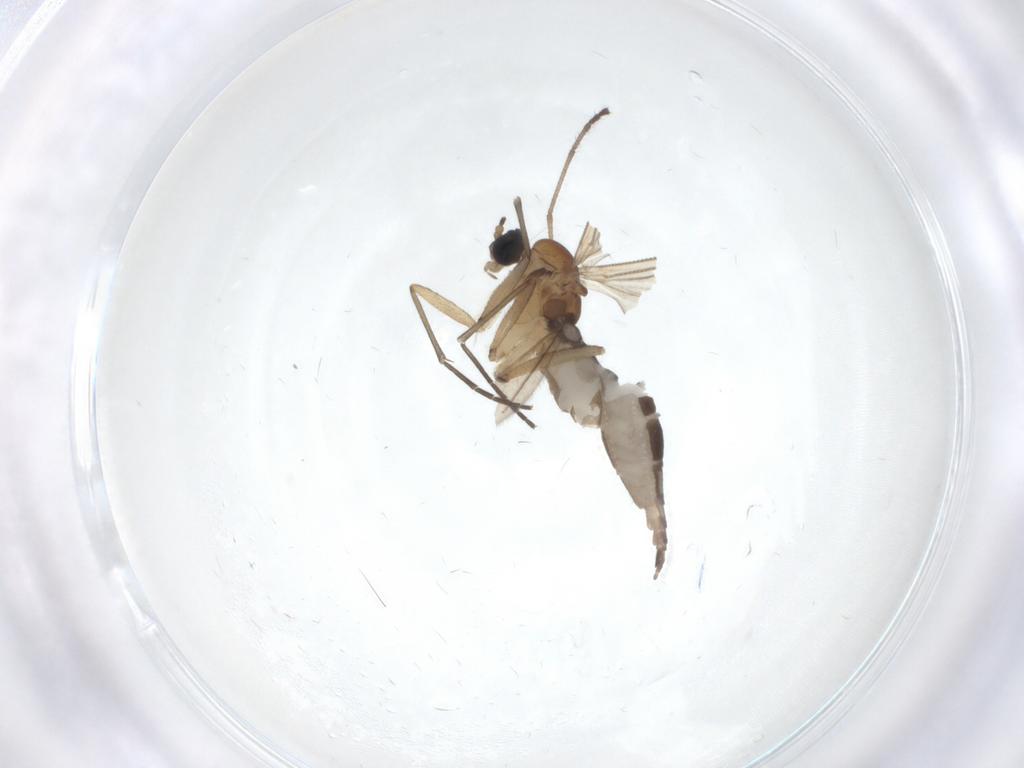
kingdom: Animalia
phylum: Arthropoda
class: Insecta
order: Diptera
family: Sciaridae
